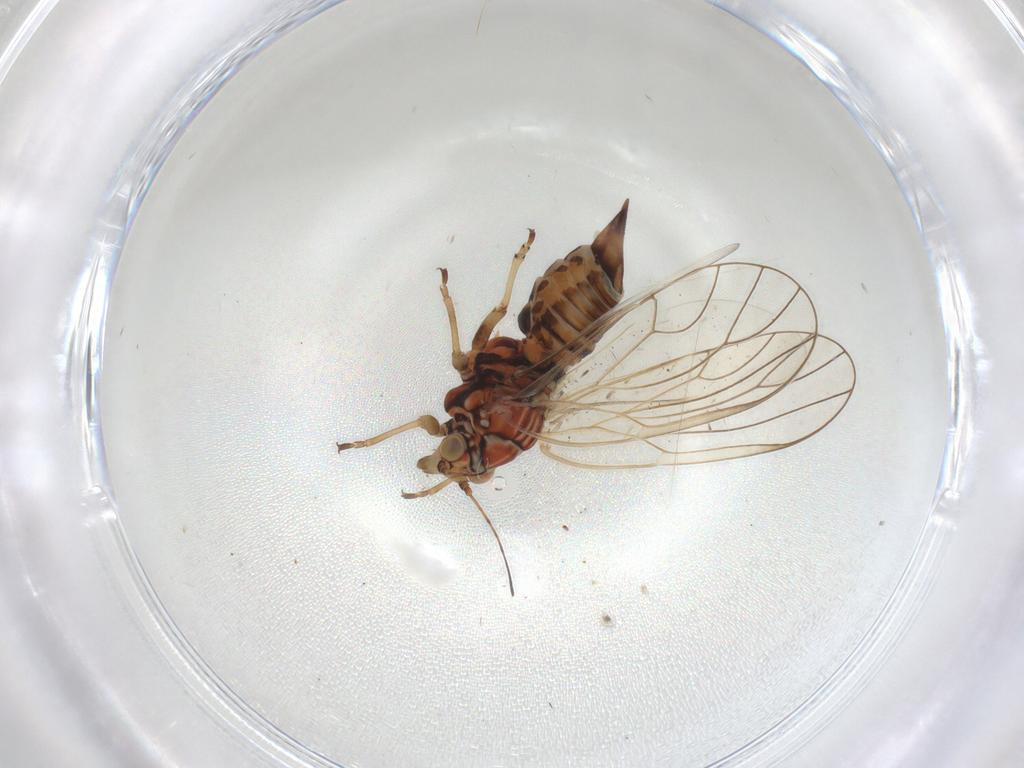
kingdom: Animalia
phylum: Arthropoda
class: Insecta
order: Hemiptera
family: Psyllidae
